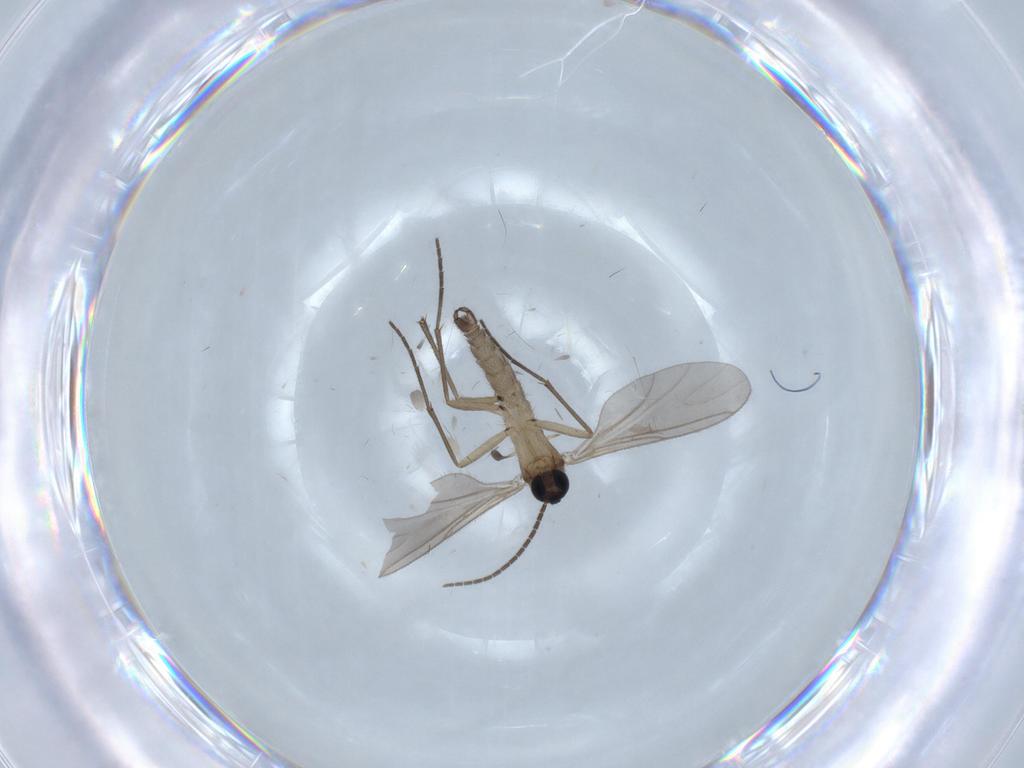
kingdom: Animalia
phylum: Arthropoda
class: Insecta
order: Diptera
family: Sciaridae
